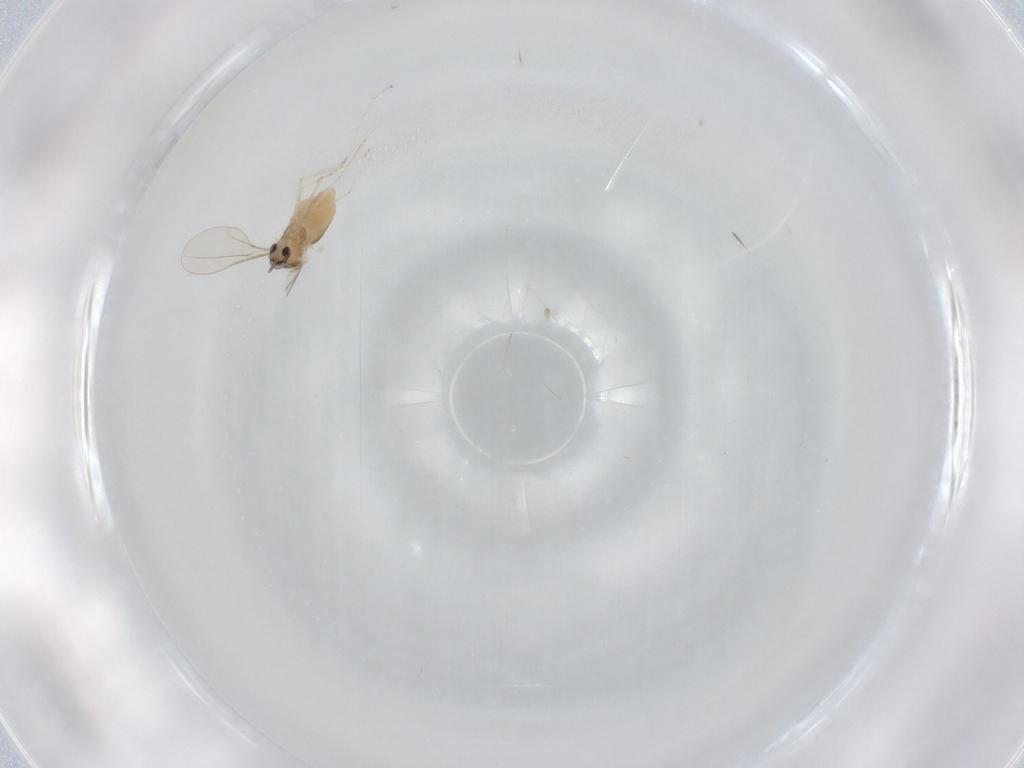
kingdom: Animalia
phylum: Arthropoda
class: Insecta
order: Diptera
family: Cecidomyiidae
